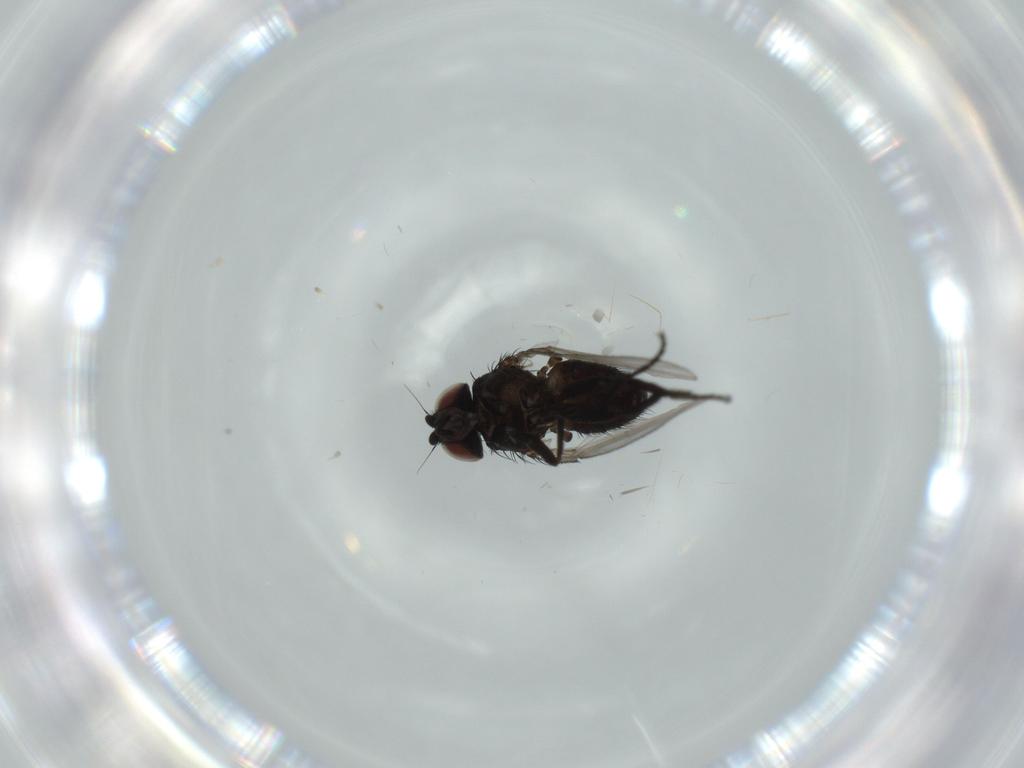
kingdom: Animalia
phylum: Arthropoda
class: Insecta
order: Diptera
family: Milichiidae
